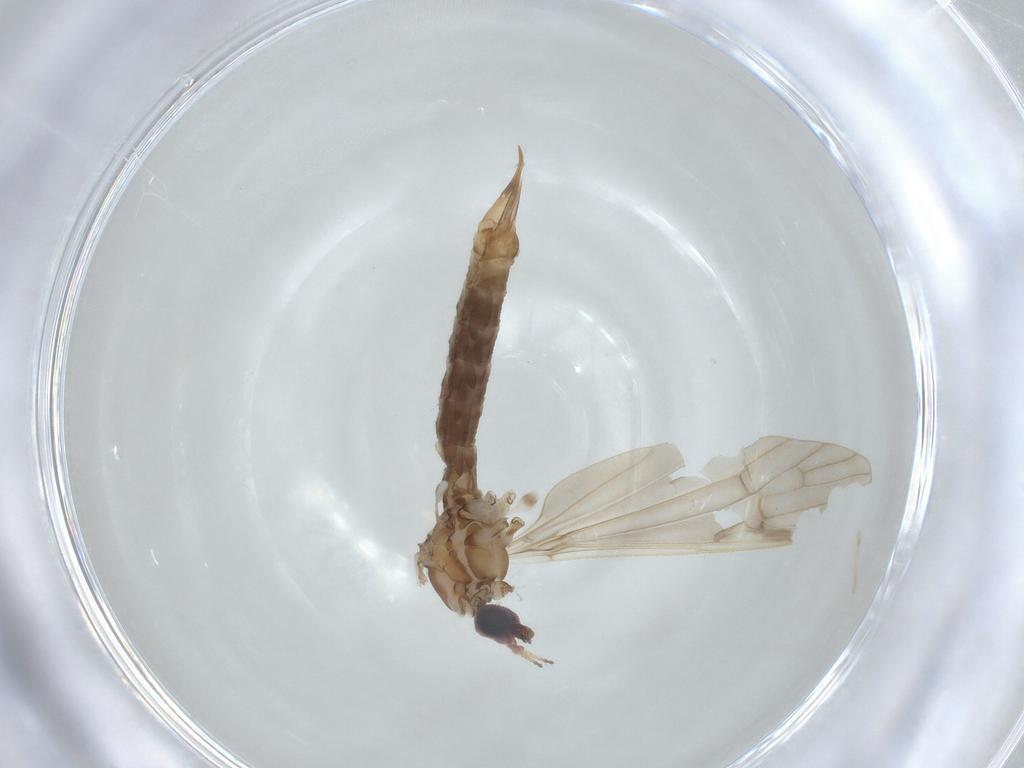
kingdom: Animalia
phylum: Arthropoda
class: Insecta
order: Diptera
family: Limoniidae
